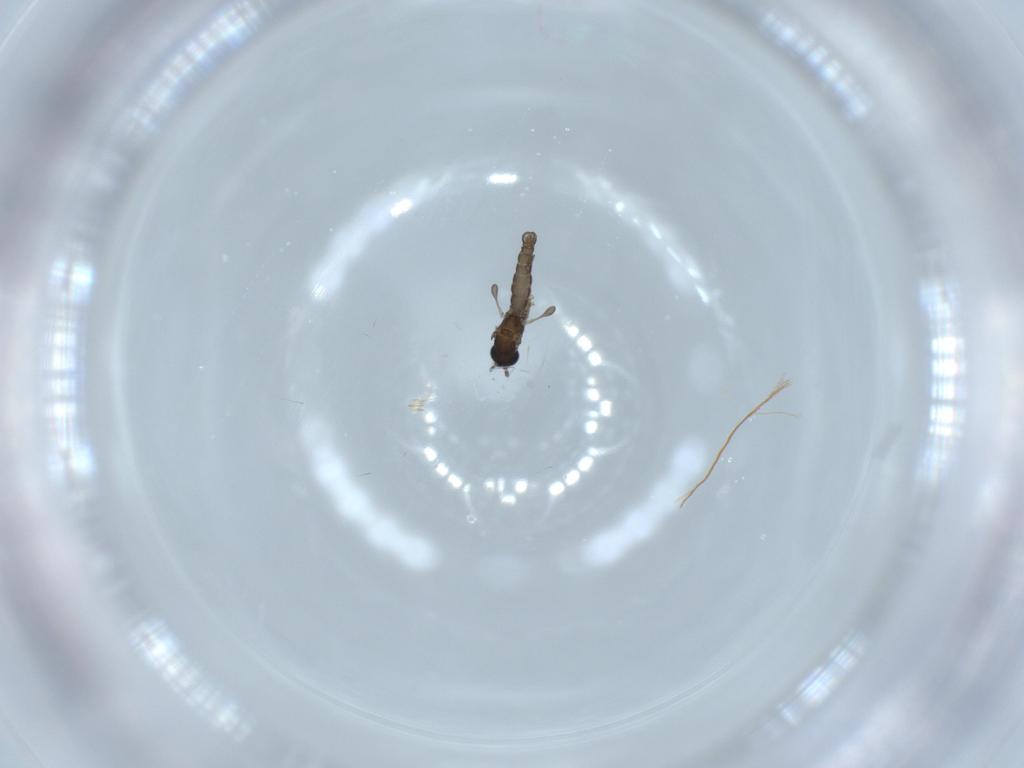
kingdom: Animalia
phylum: Arthropoda
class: Insecta
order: Diptera
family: Sciaridae
